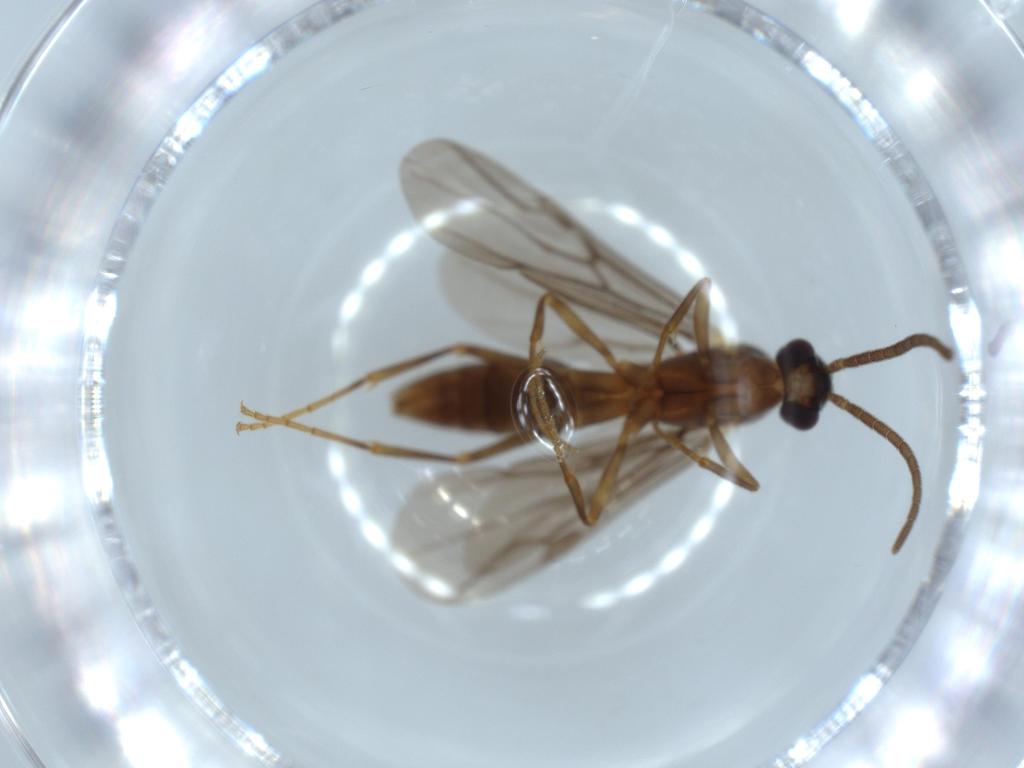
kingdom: Animalia
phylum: Arthropoda
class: Insecta
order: Hymenoptera
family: Formicidae
